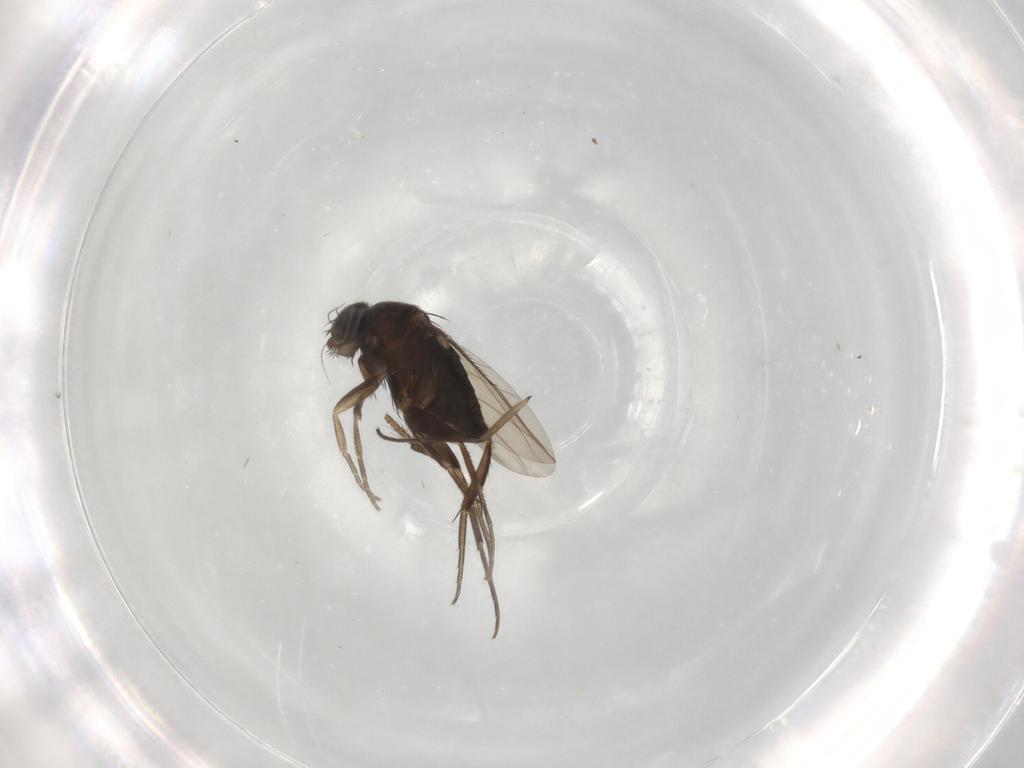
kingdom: Animalia
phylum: Arthropoda
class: Insecta
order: Diptera
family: Phoridae
